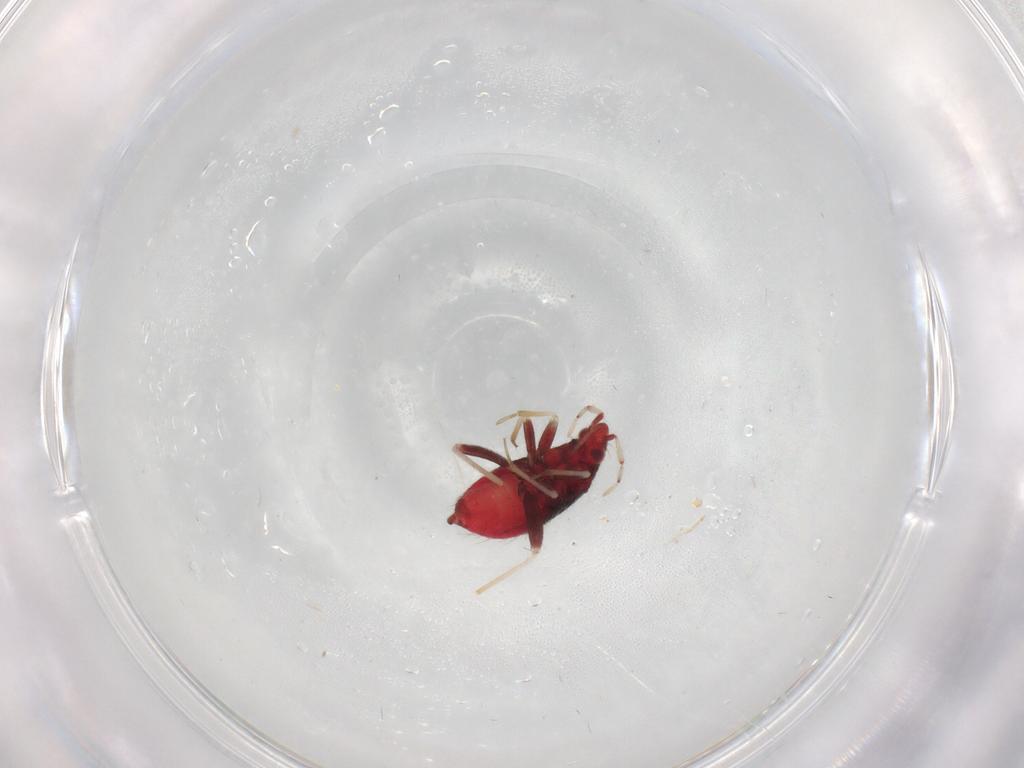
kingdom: Animalia
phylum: Arthropoda
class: Insecta
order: Hemiptera
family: Miridae
